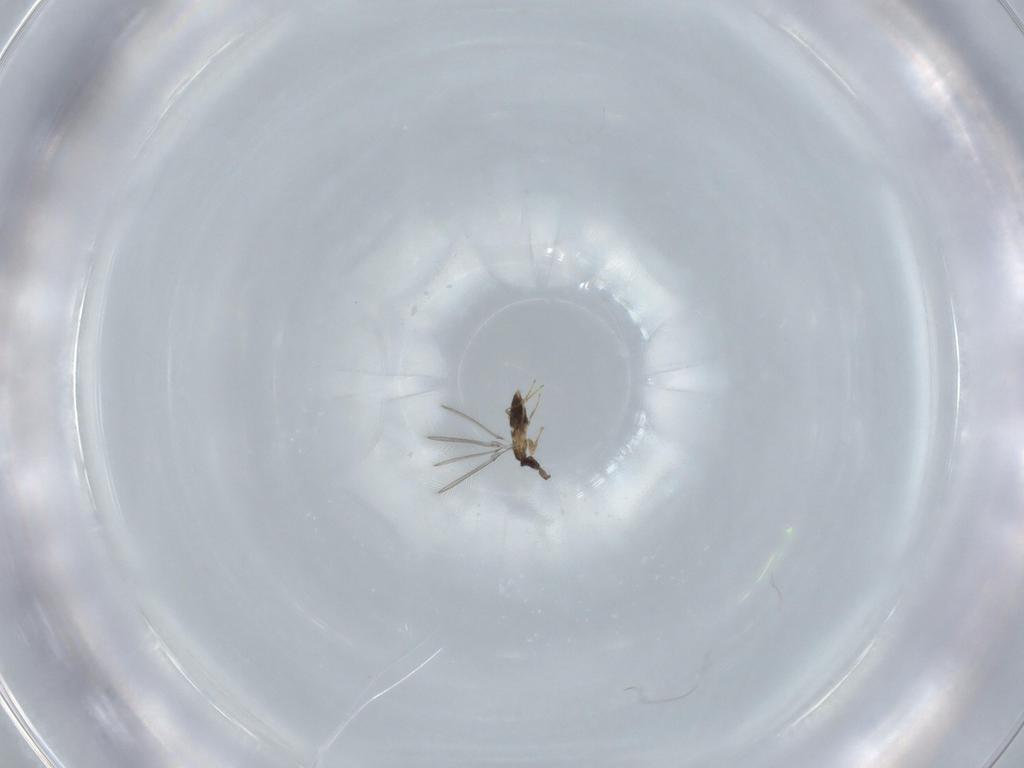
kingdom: Animalia
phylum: Arthropoda
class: Insecta
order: Hymenoptera
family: Mymaridae
